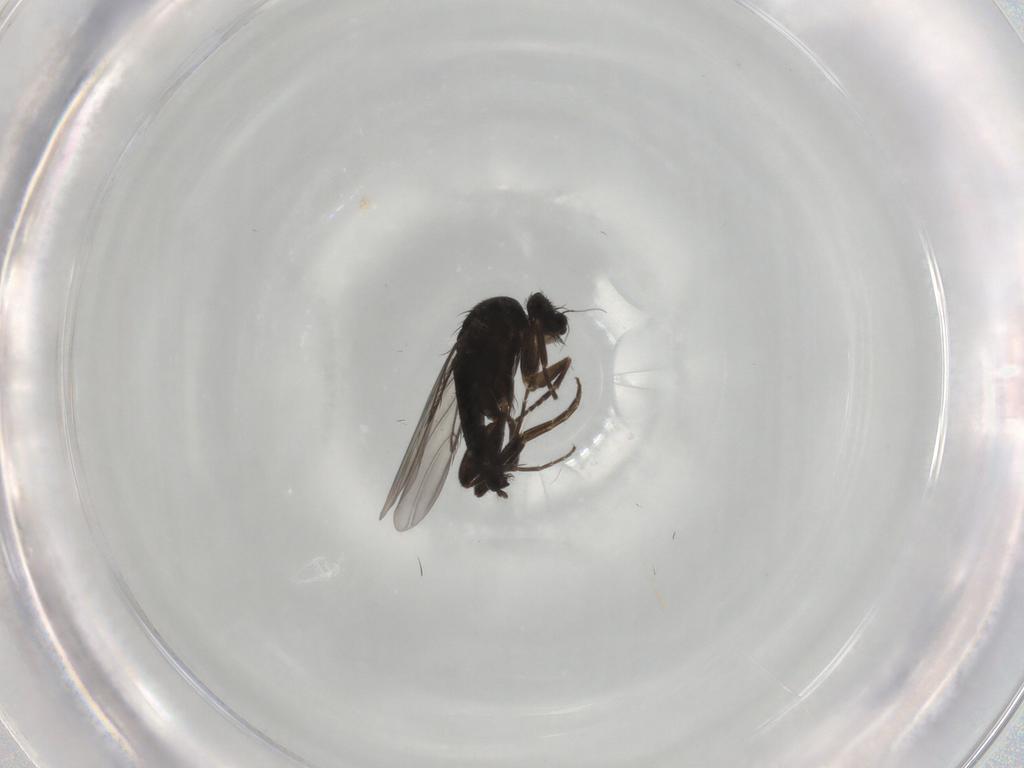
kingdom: Animalia
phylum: Arthropoda
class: Insecta
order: Diptera
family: Phoridae
